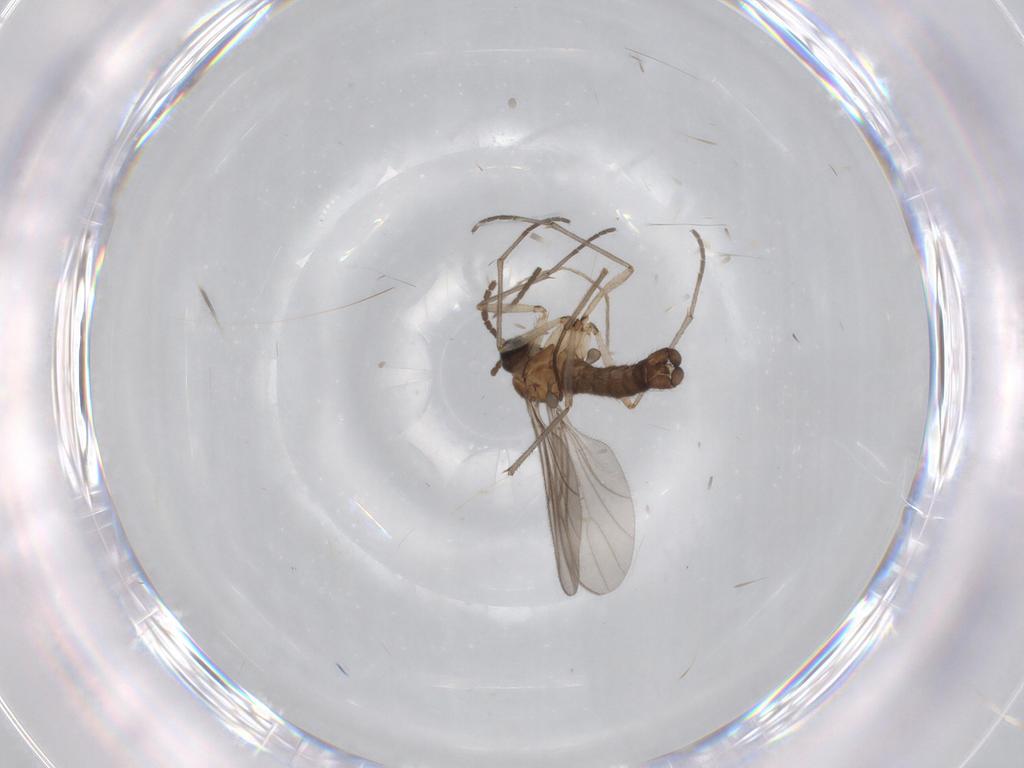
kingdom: Animalia
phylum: Arthropoda
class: Insecta
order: Diptera
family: Sciaridae
